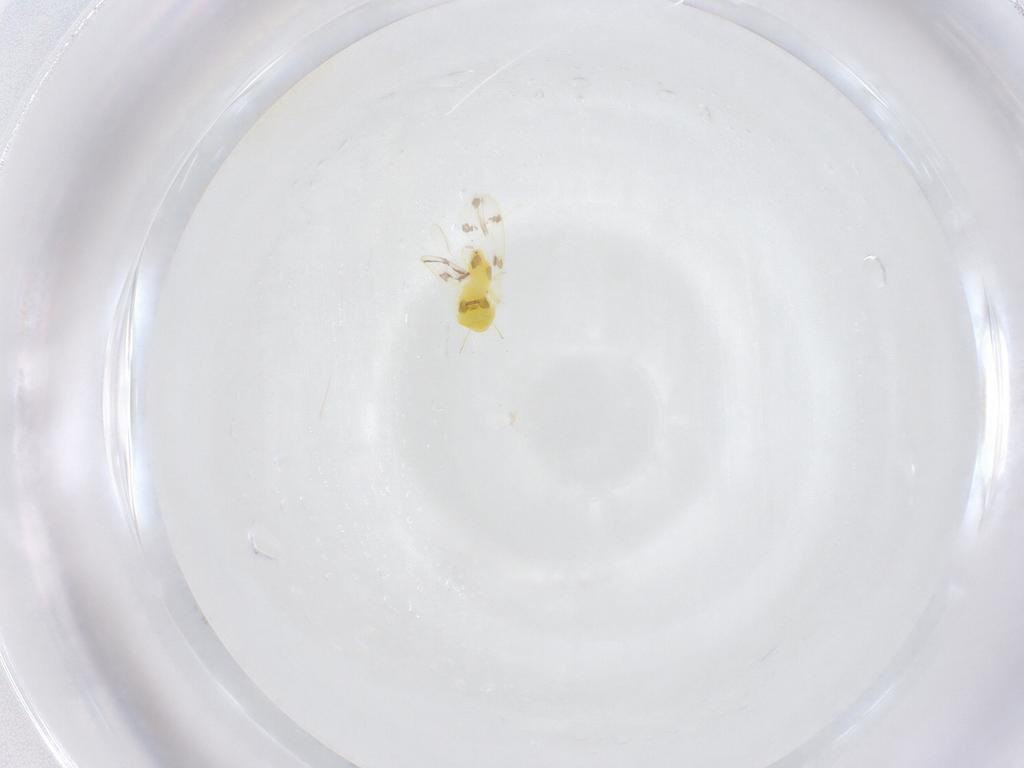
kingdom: Animalia
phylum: Arthropoda
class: Insecta
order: Hemiptera
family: Aleyrodidae
